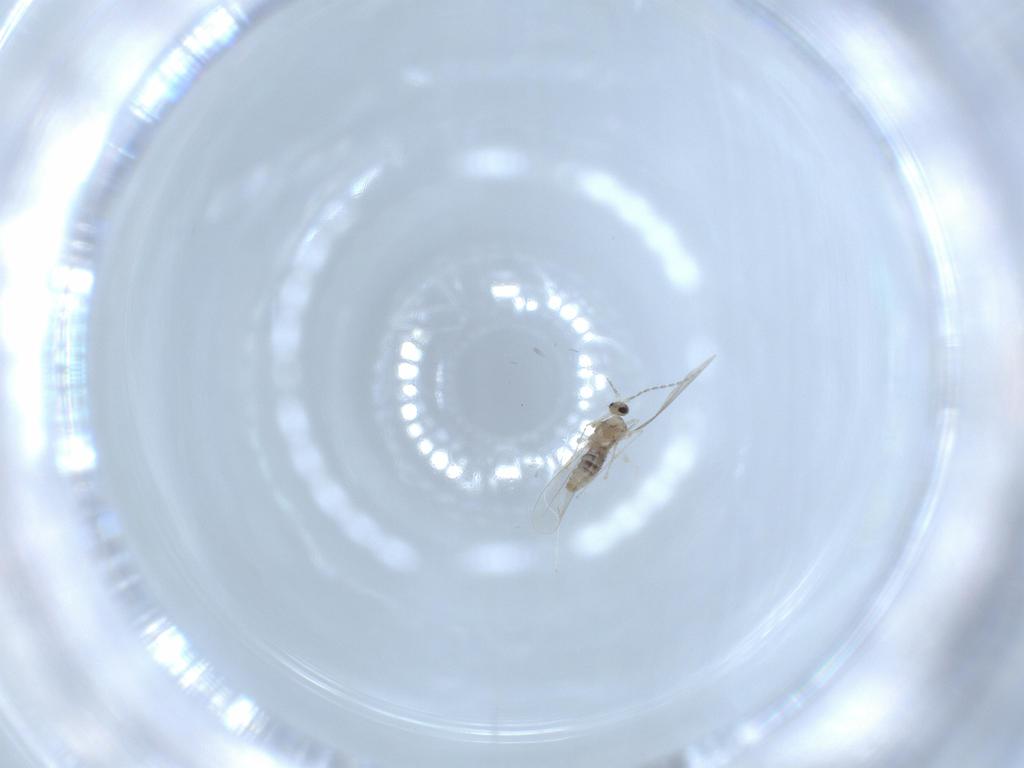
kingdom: Animalia
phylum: Arthropoda
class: Insecta
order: Diptera
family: Cecidomyiidae
